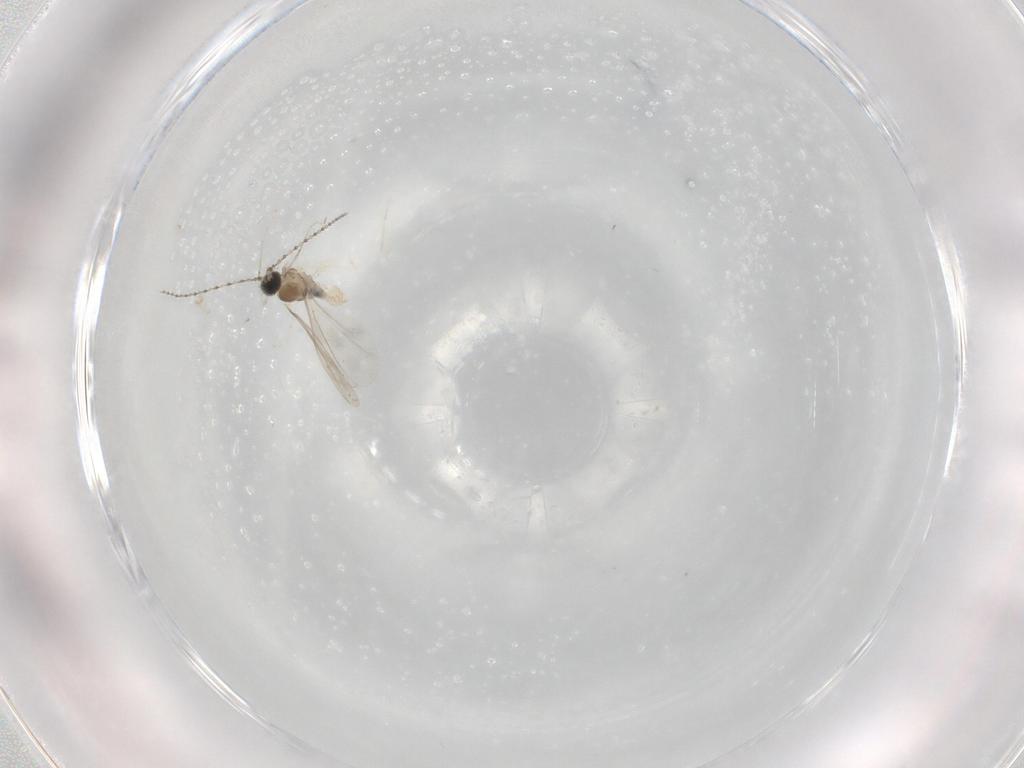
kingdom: Animalia
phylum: Arthropoda
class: Insecta
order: Diptera
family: Cecidomyiidae
